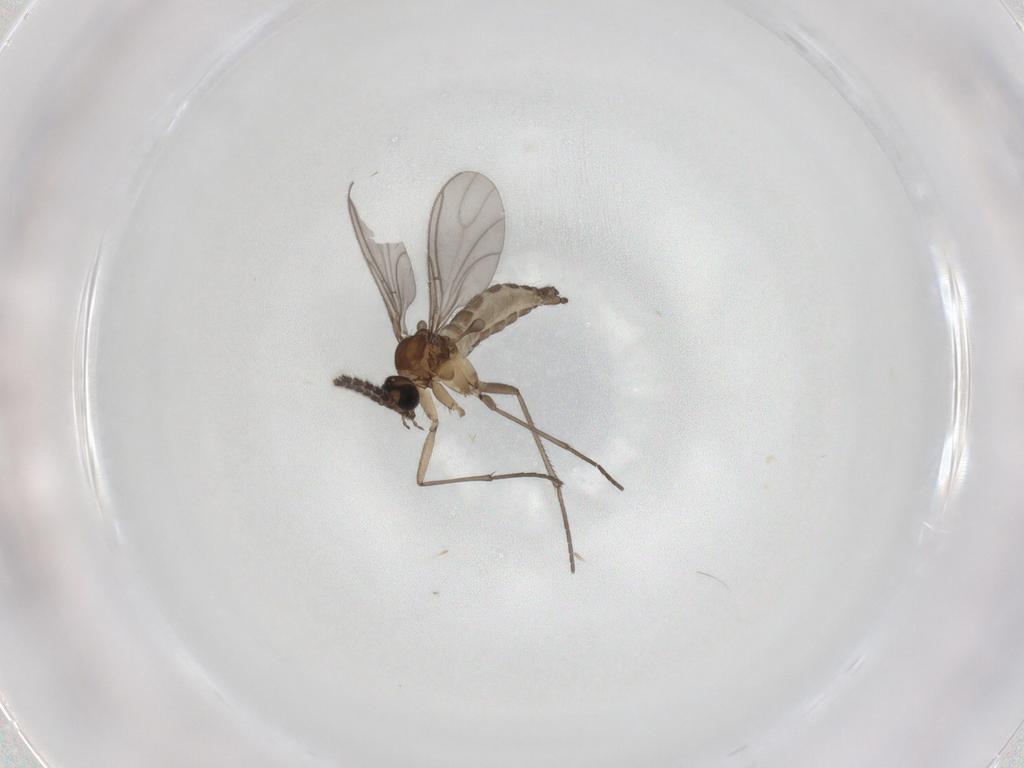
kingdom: Animalia
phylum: Arthropoda
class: Insecta
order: Diptera
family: Sciaridae
